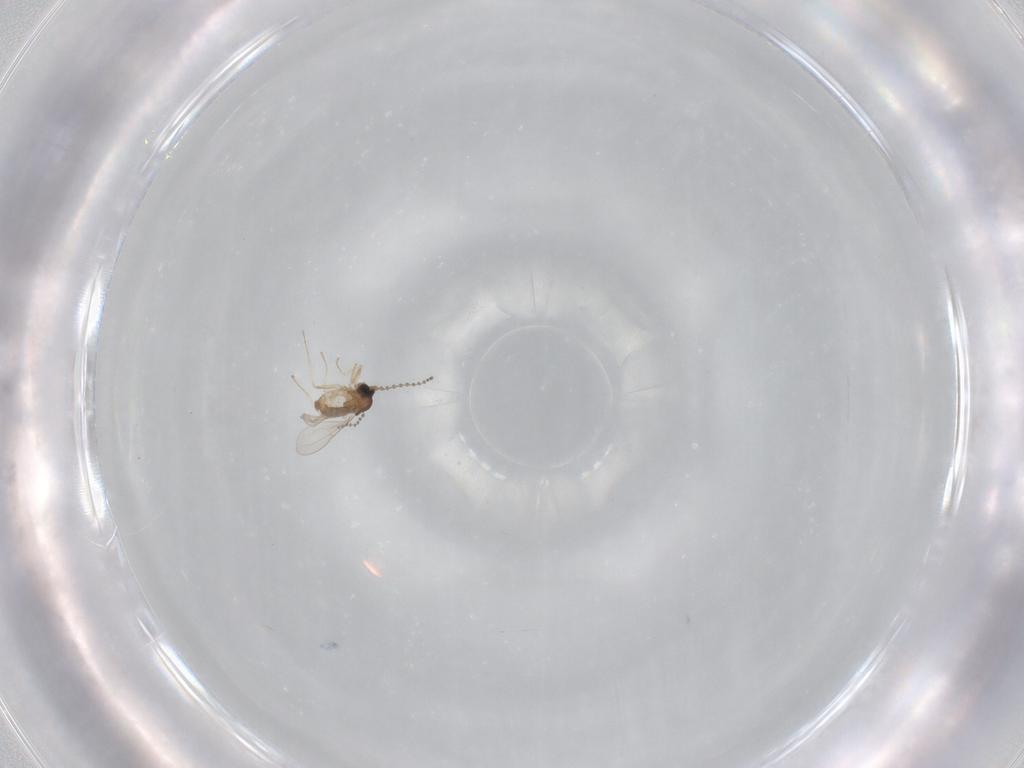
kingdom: Animalia
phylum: Arthropoda
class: Insecta
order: Diptera
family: Cecidomyiidae
